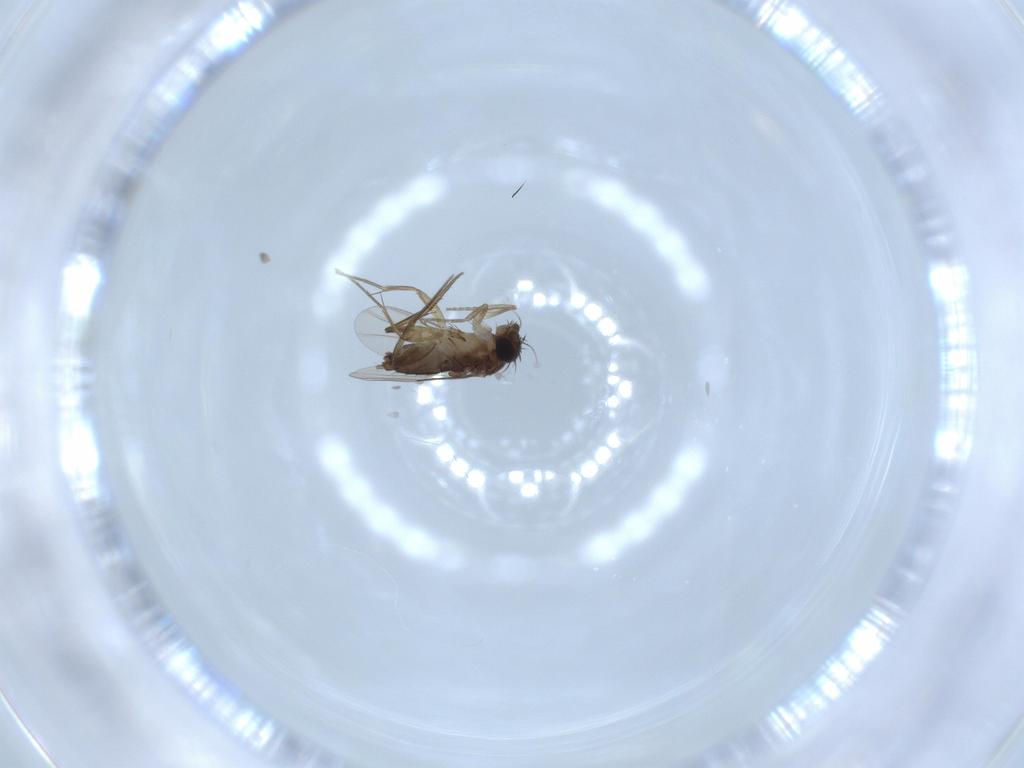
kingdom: Animalia
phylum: Arthropoda
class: Insecta
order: Diptera
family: Phoridae
